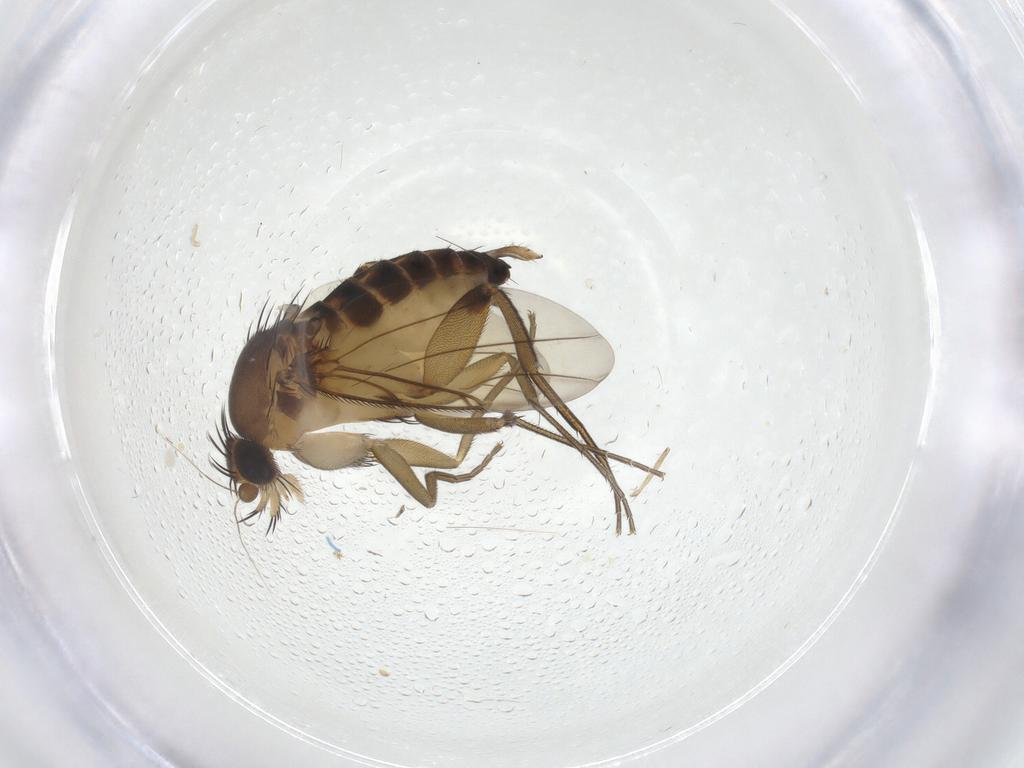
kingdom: Animalia
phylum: Arthropoda
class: Insecta
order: Diptera
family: Phoridae
